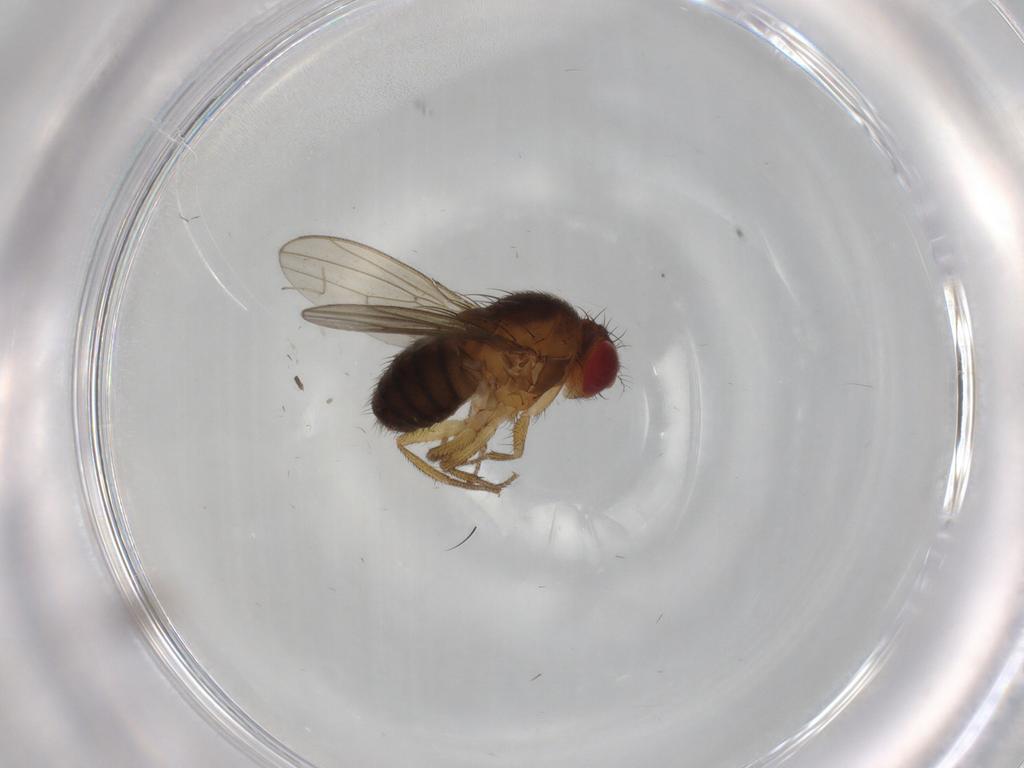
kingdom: Animalia
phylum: Arthropoda
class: Insecta
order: Diptera
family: Drosophilidae
